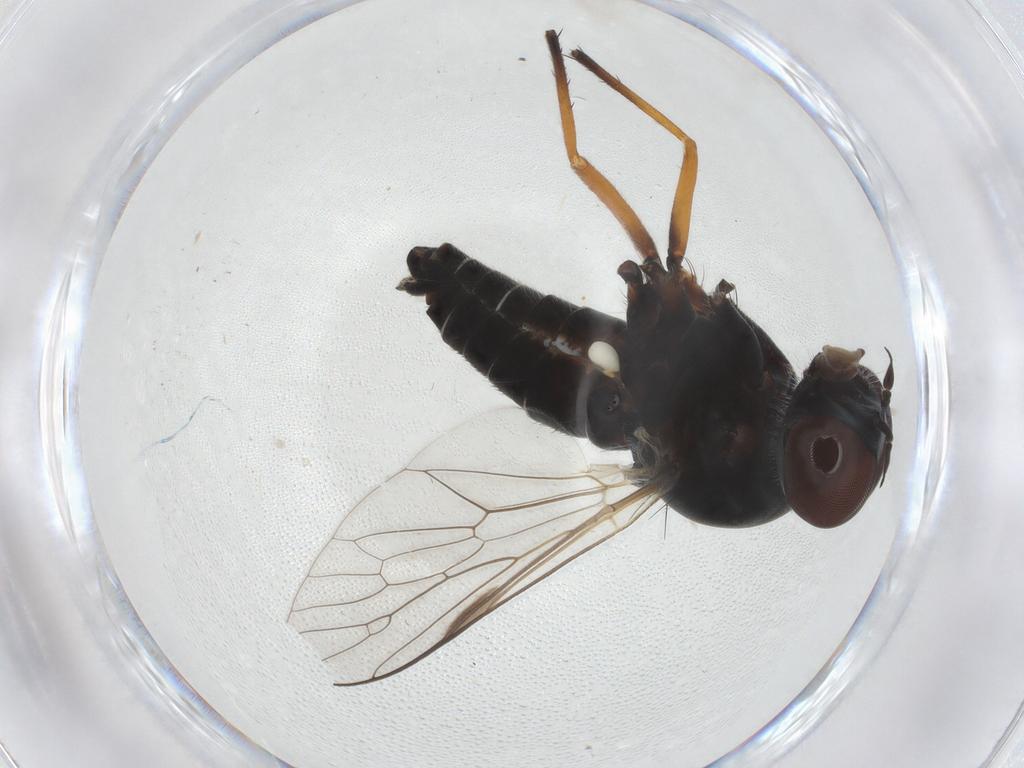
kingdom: Animalia
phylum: Arthropoda
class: Insecta
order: Diptera
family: Therevidae
